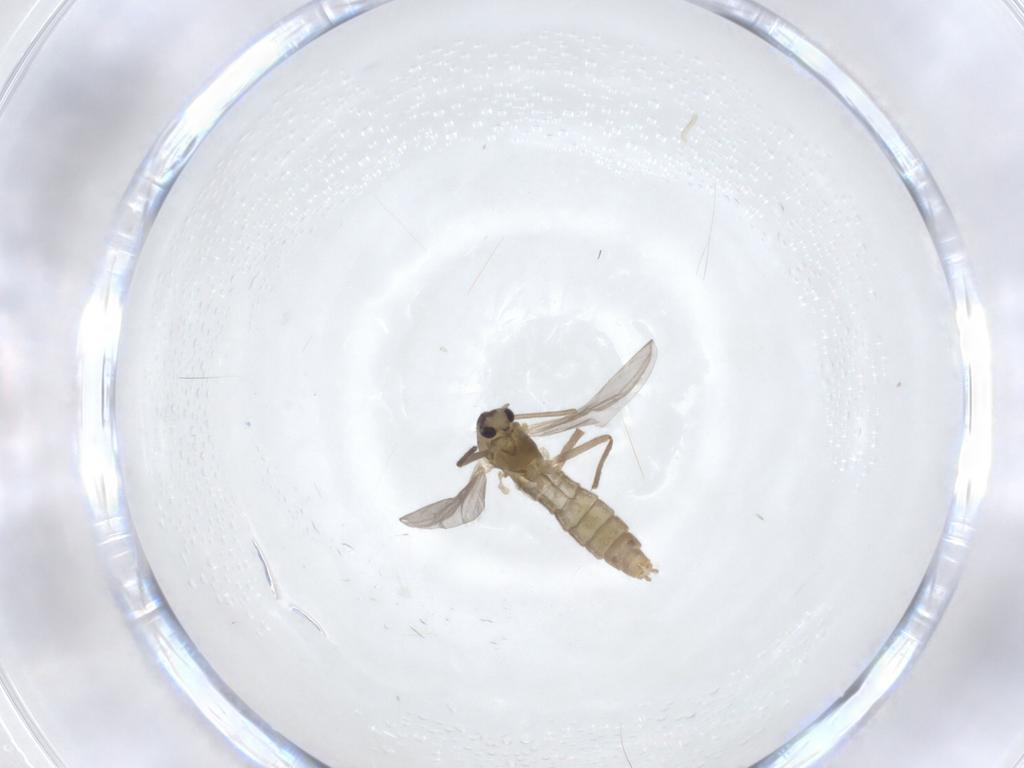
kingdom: Animalia
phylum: Arthropoda
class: Insecta
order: Diptera
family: Chironomidae
